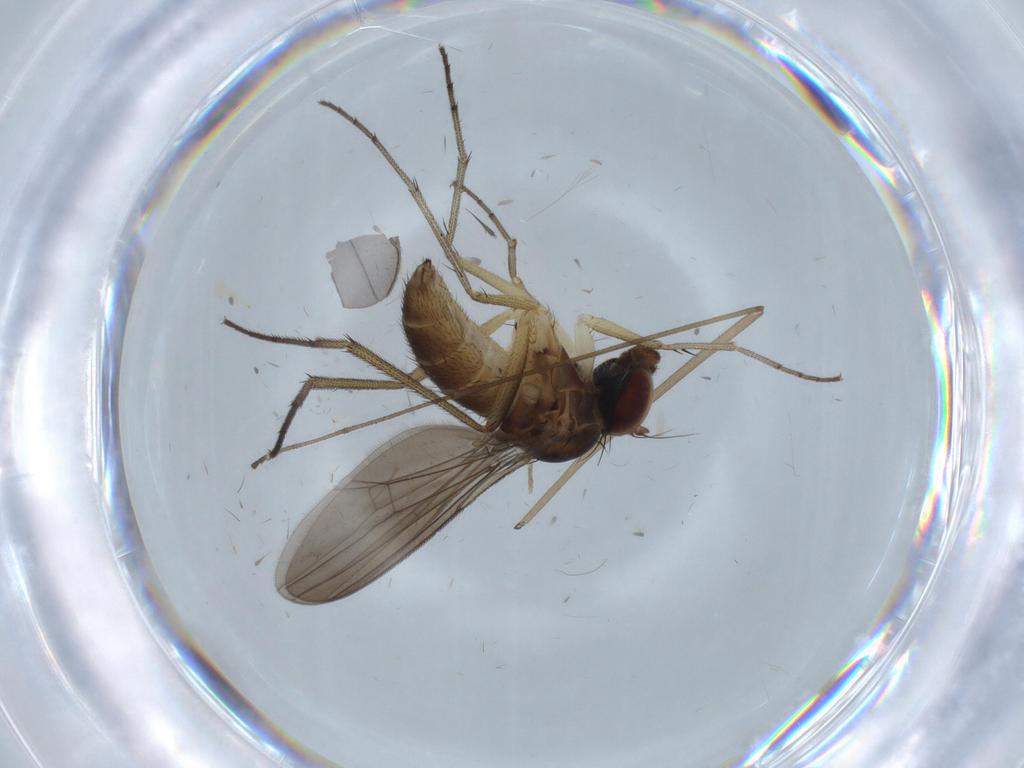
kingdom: Animalia
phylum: Arthropoda
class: Insecta
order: Diptera
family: Dolichopodidae
